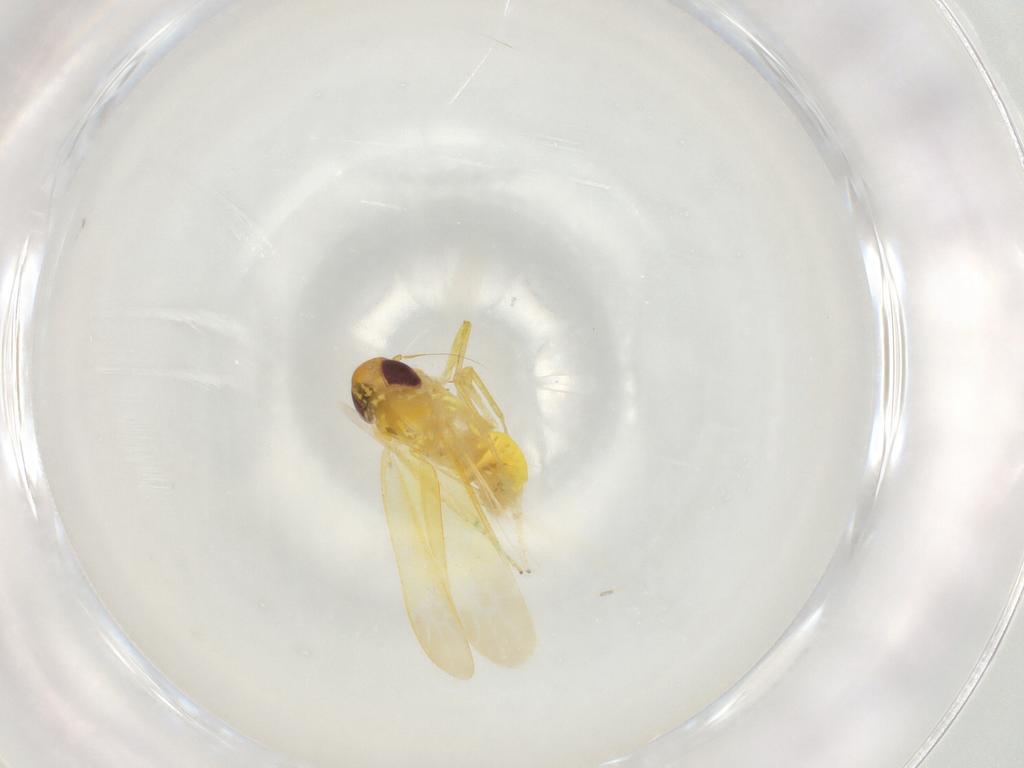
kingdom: Animalia
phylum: Arthropoda
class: Insecta
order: Hemiptera
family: Cicadellidae
